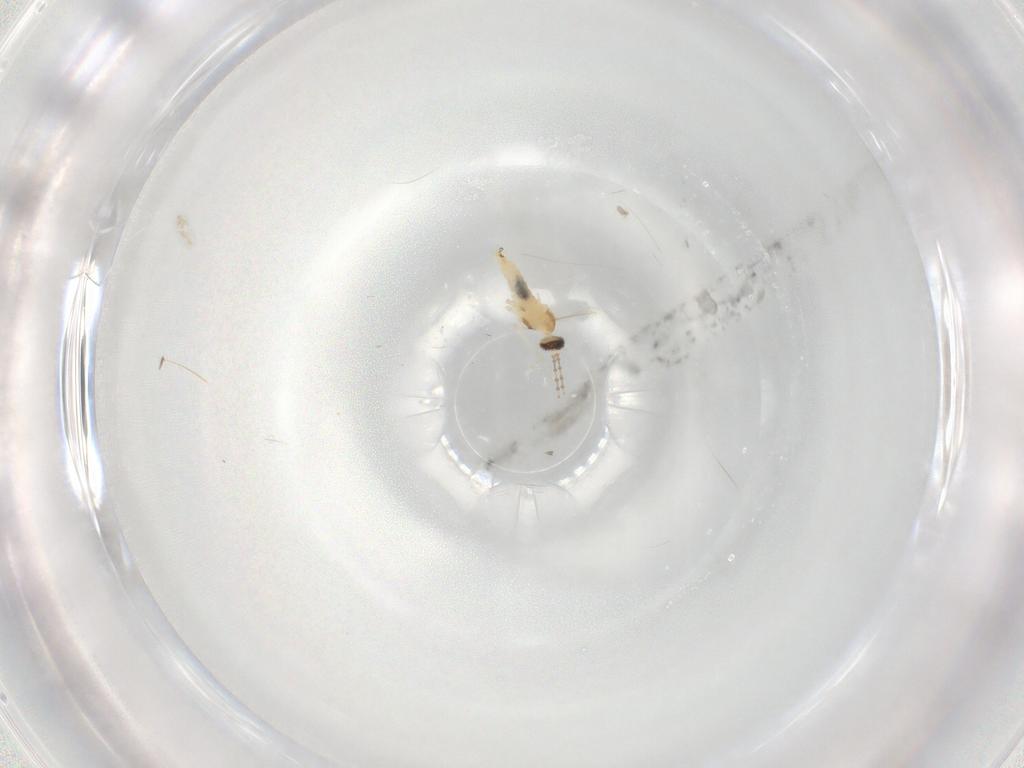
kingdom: Animalia
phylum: Arthropoda
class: Insecta
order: Diptera
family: Cecidomyiidae
